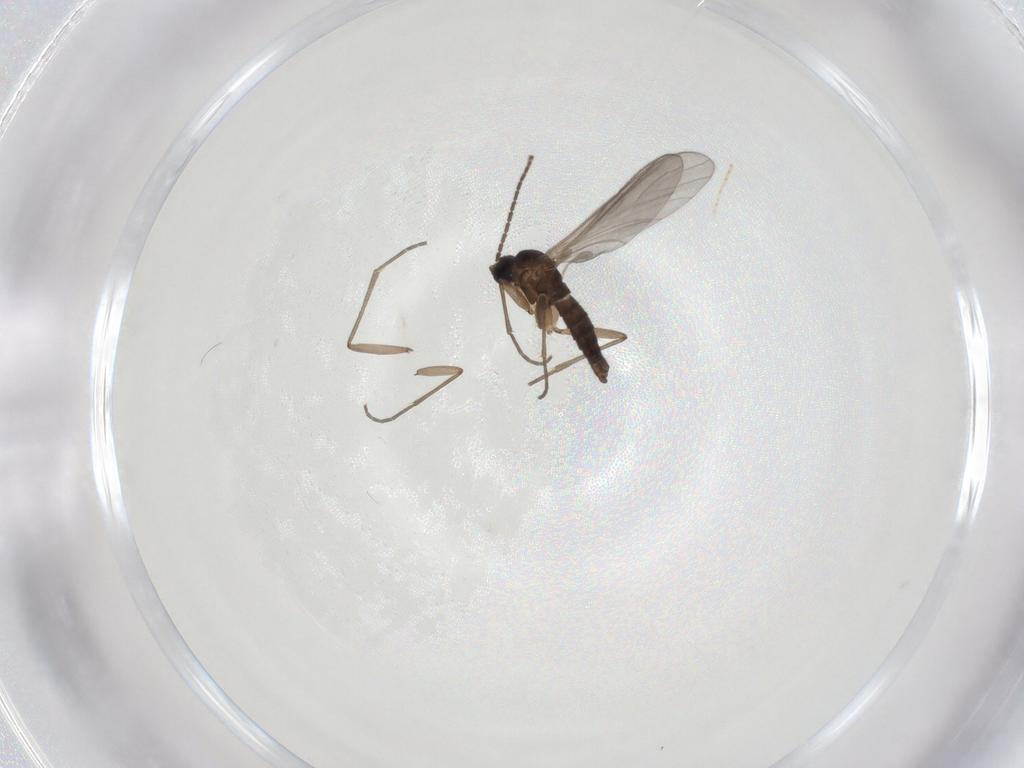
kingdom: Animalia
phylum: Arthropoda
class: Insecta
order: Diptera
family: Sciaridae
